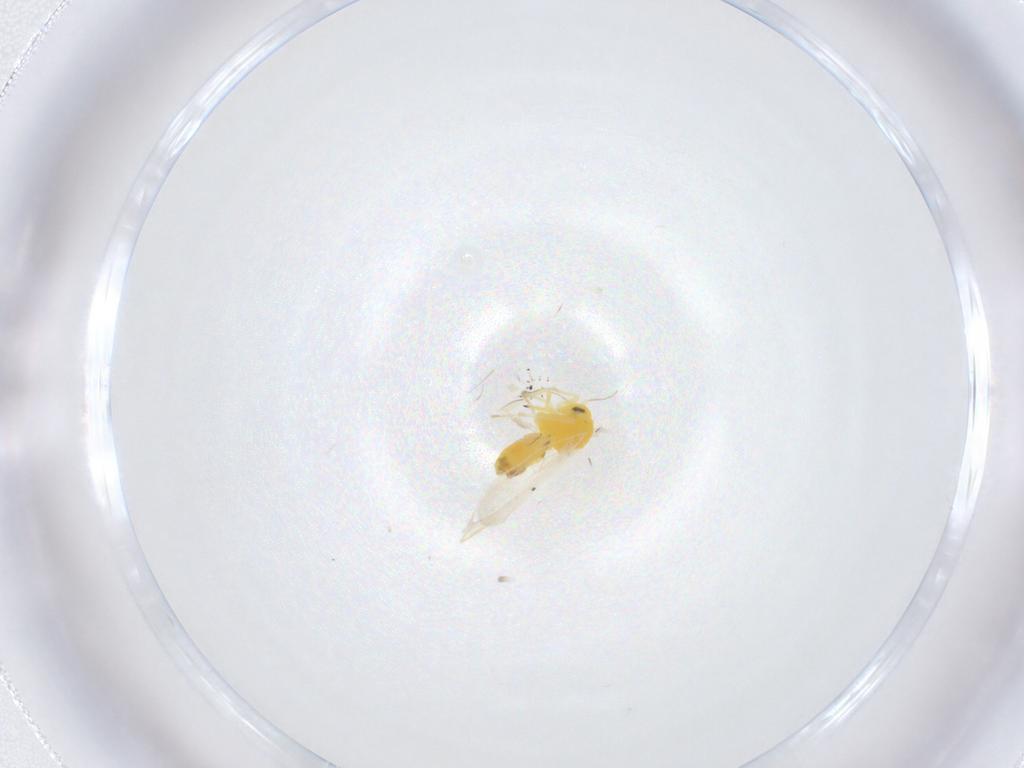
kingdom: Animalia
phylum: Arthropoda
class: Insecta
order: Hemiptera
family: Aleyrodidae
